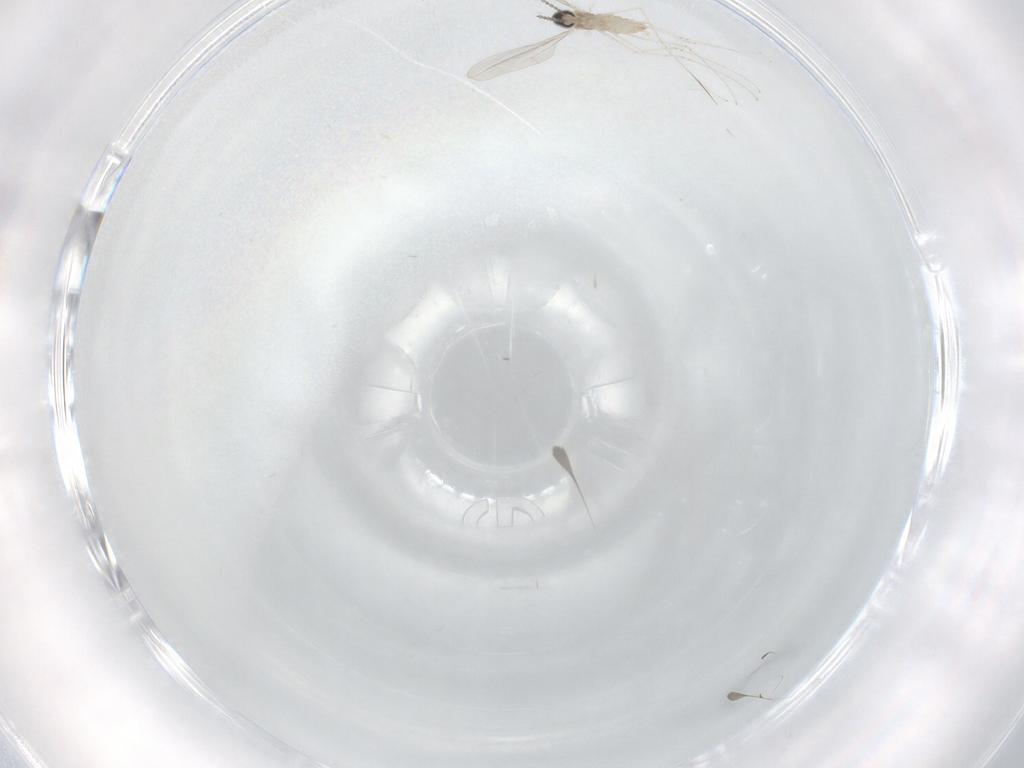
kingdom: Animalia
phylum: Arthropoda
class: Insecta
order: Diptera
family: Cecidomyiidae
